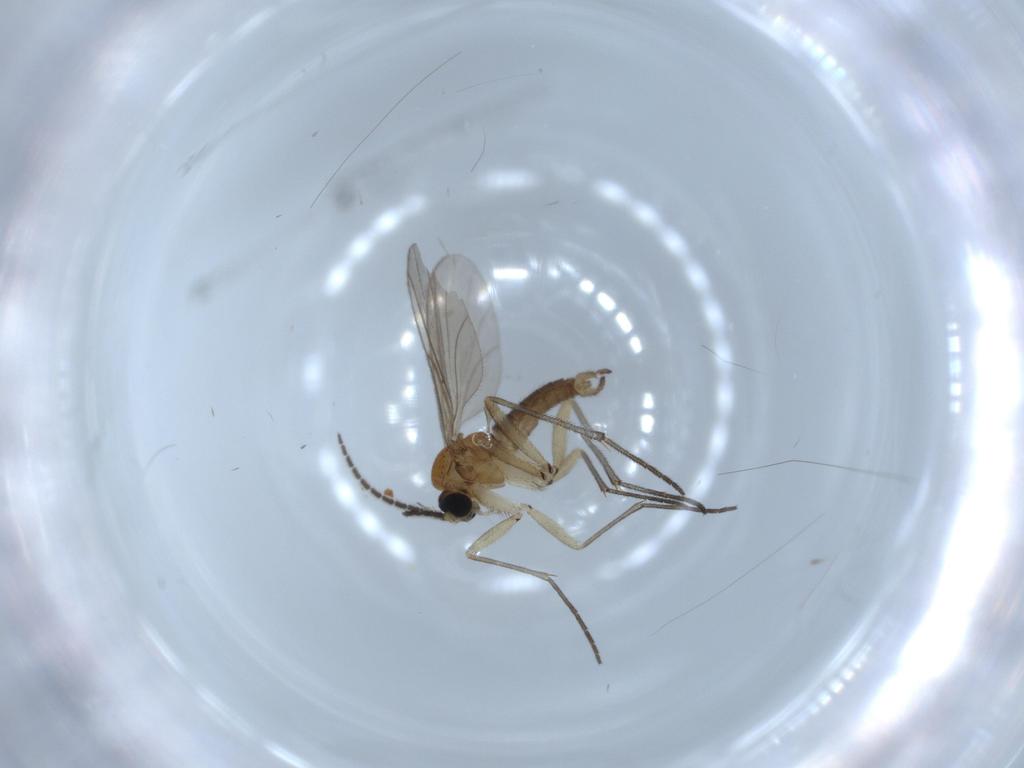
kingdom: Animalia
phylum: Arthropoda
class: Insecta
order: Diptera
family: Sciaridae
